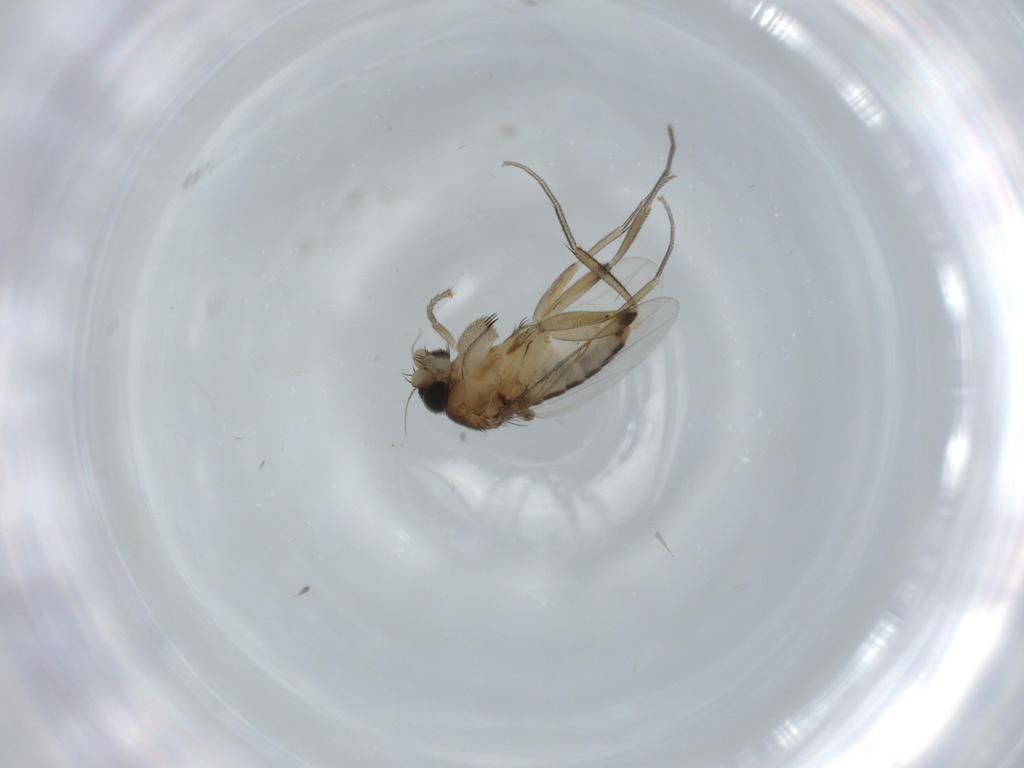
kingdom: Animalia
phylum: Arthropoda
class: Insecta
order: Diptera
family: Phoridae
